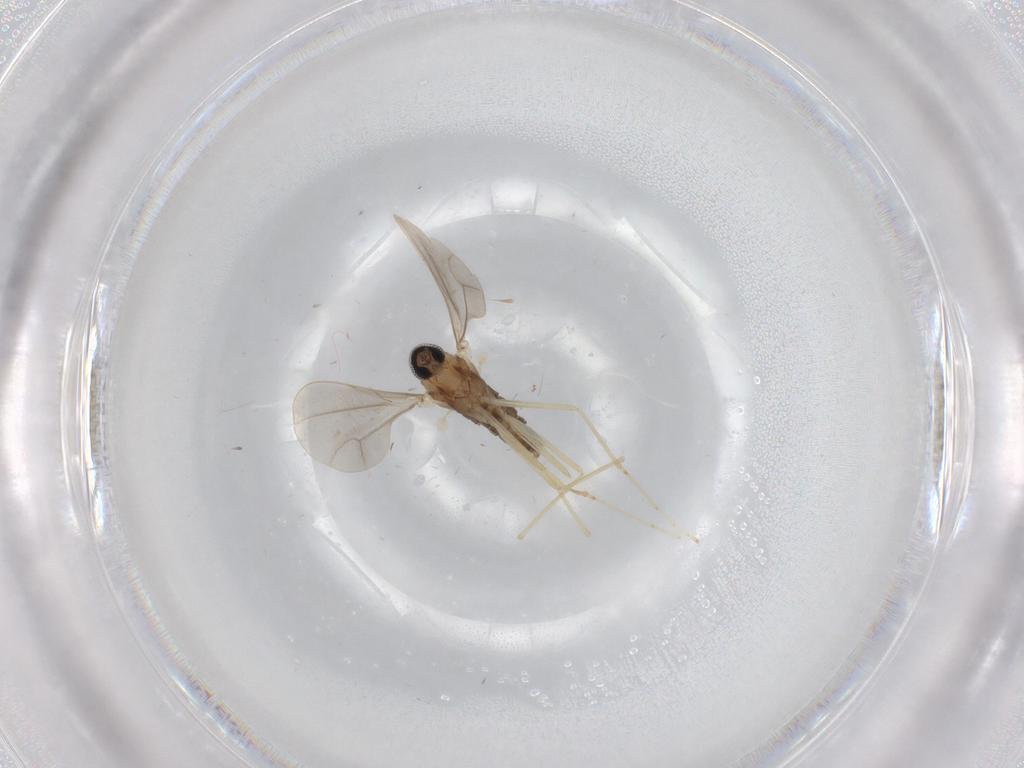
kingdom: Animalia
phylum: Arthropoda
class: Insecta
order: Diptera
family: Cecidomyiidae
